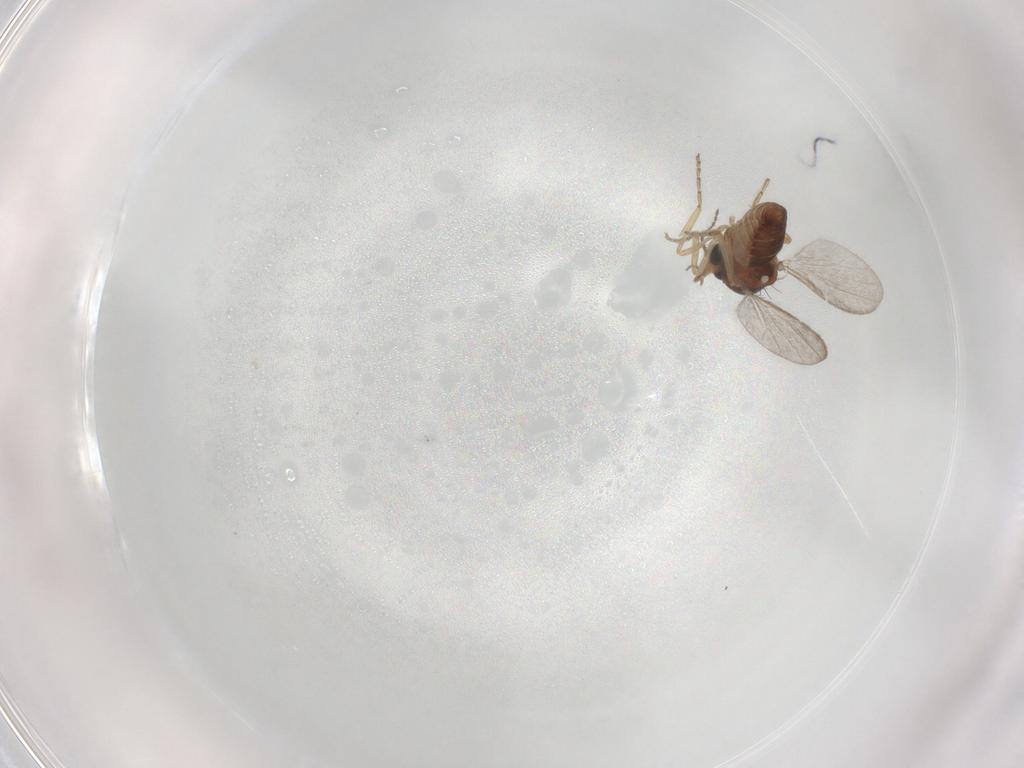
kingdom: Animalia
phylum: Arthropoda
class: Insecta
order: Diptera
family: Ceratopogonidae
